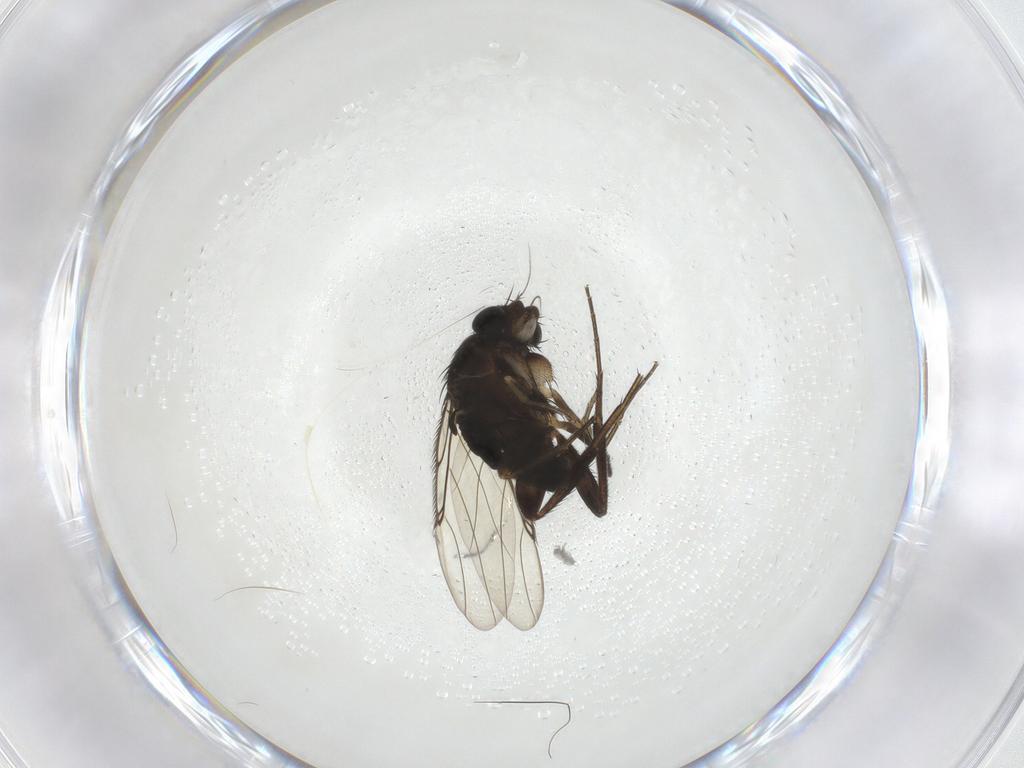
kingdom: Animalia
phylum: Arthropoda
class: Insecta
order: Diptera
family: Phoridae
